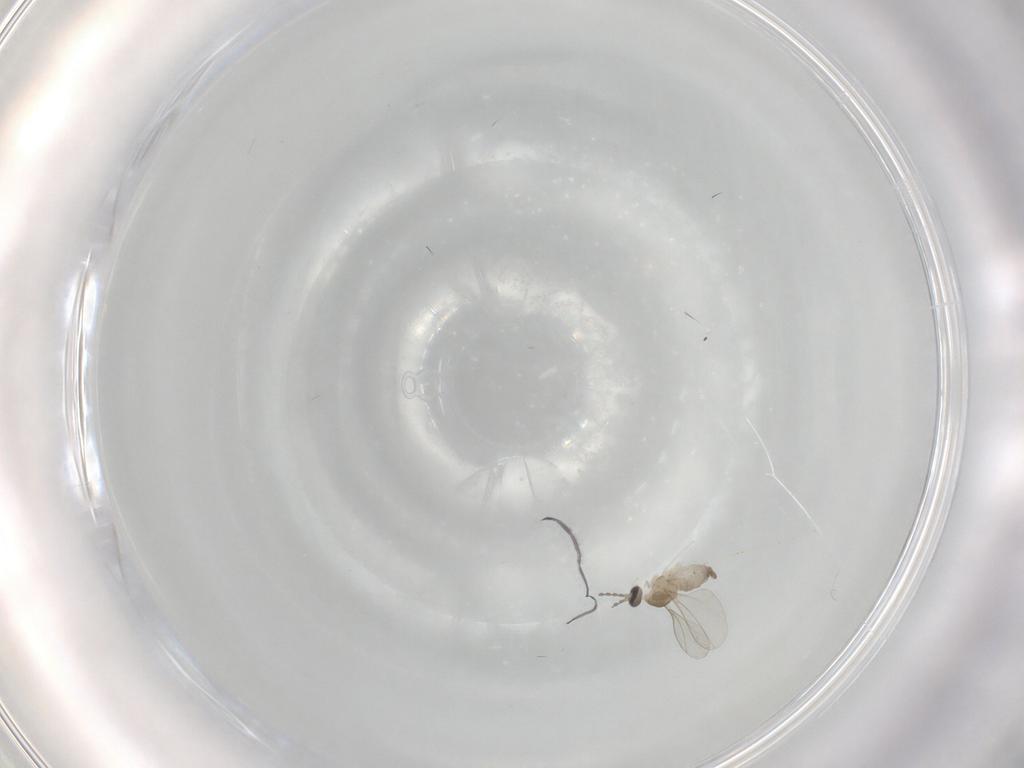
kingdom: Animalia
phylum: Arthropoda
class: Insecta
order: Diptera
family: Cecidomyiidae
